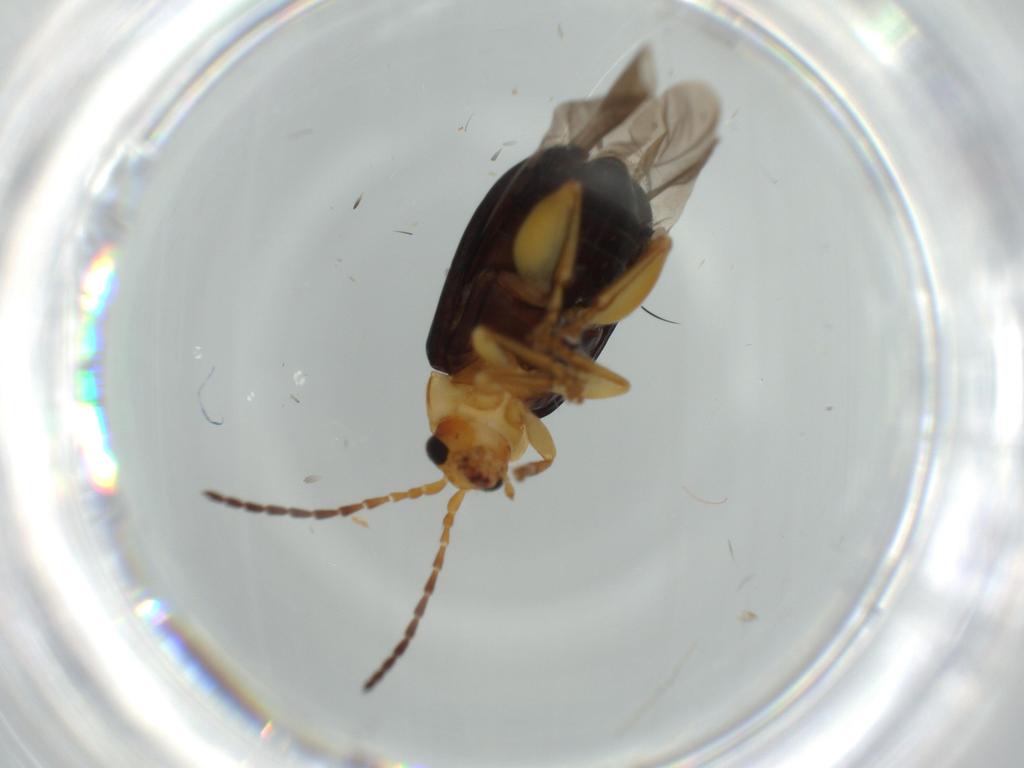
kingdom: Animalia
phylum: Arthropoda
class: Insecta
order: Coleoptera
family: Chrysomelidae
